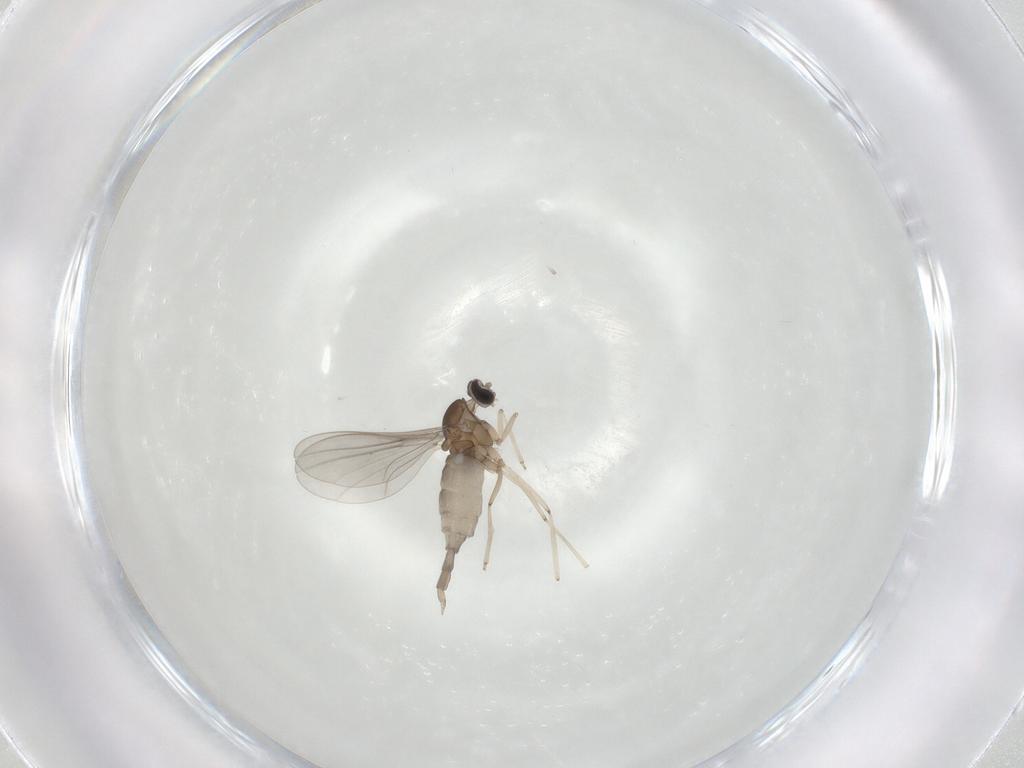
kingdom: Animalia
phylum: Arthropoda
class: Insecta
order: Diptera
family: Cecidomyiidae
